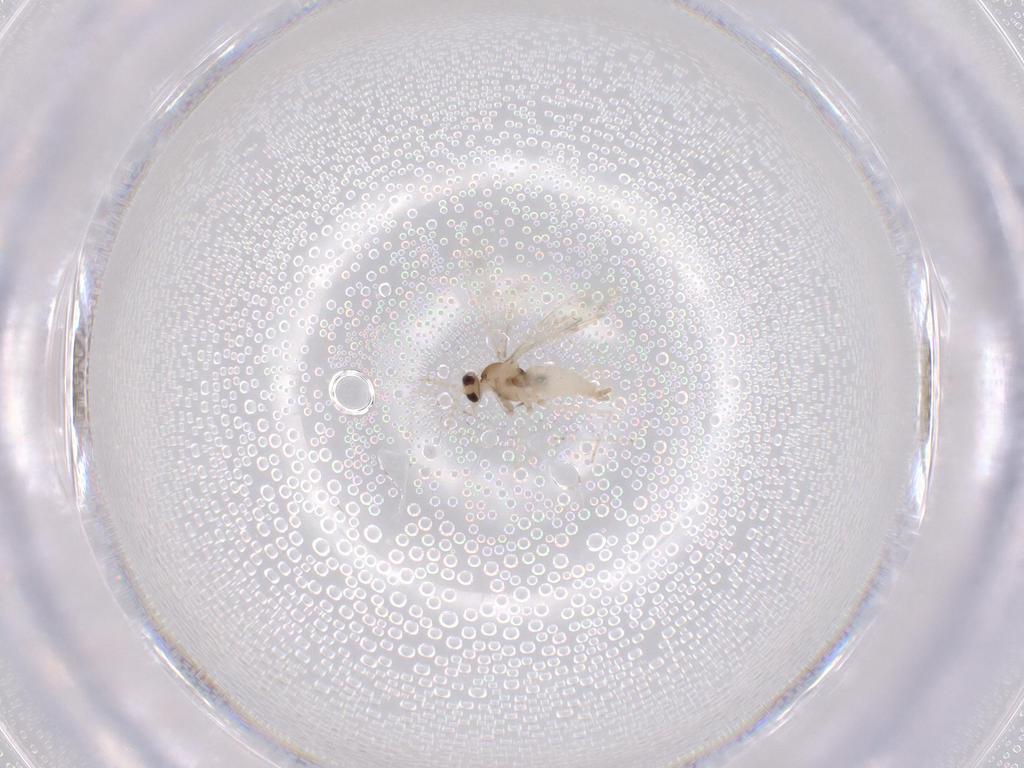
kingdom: Animalia
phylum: Arthropoda
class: Insecta
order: Diptera
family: Cecidomyiidae
